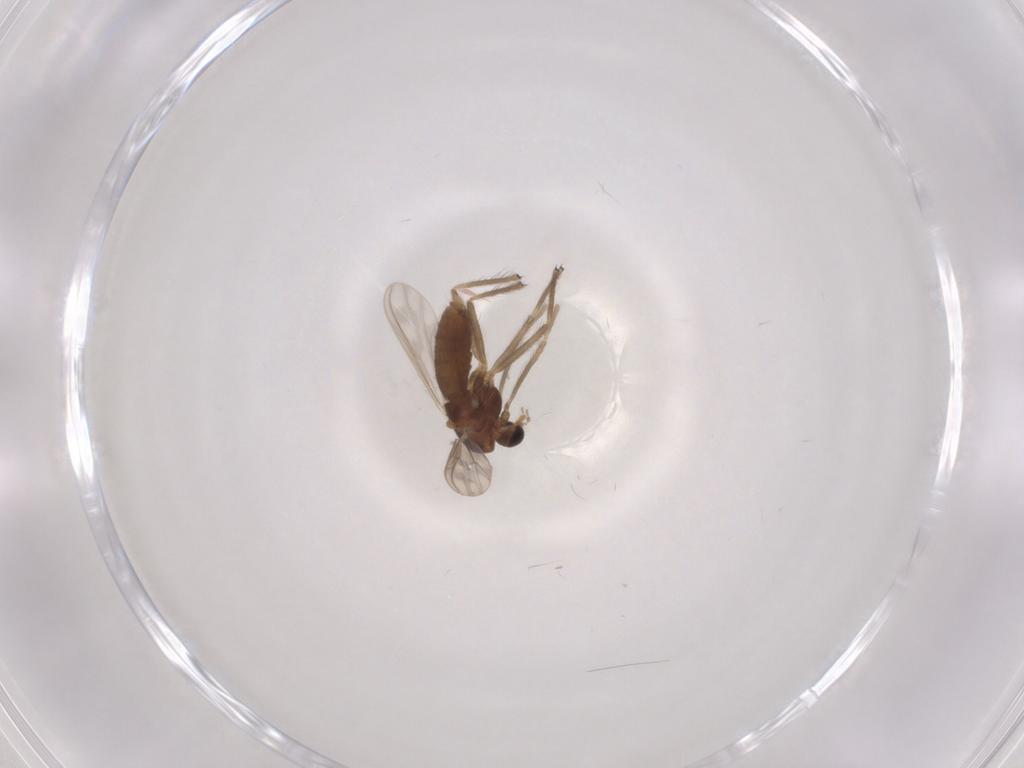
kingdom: Animalia
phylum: Arthropoda
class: Insecta
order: Diptera
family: Chironomidae
